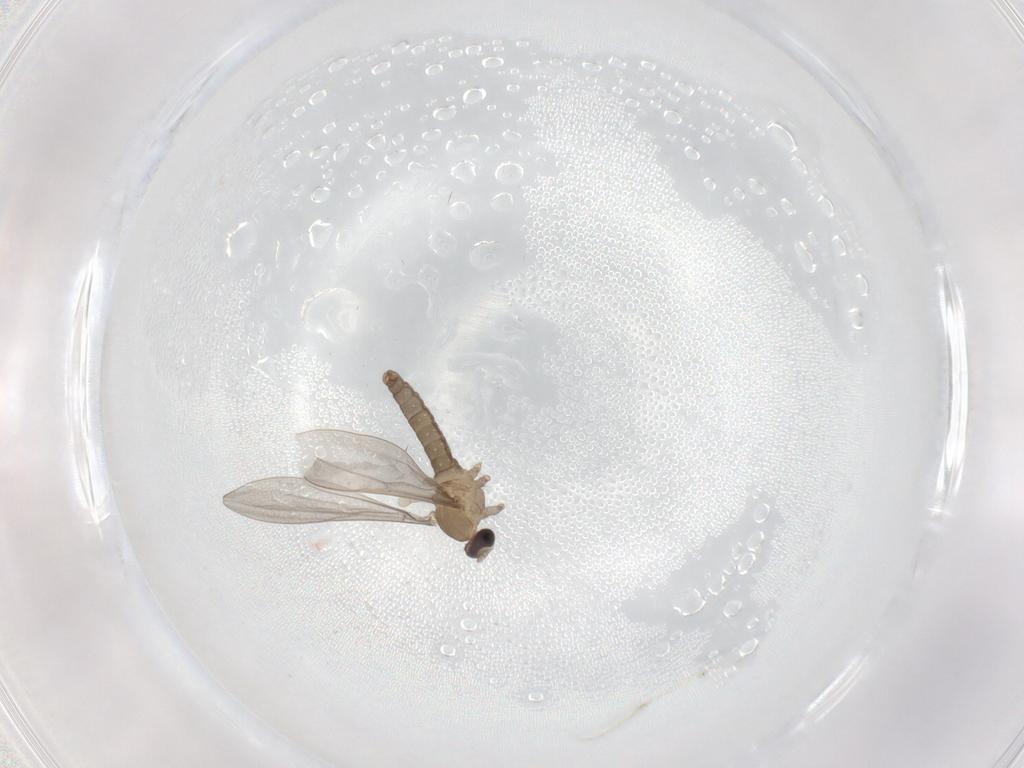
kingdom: Animalia
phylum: Arthropoda
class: Insecta
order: Diptera
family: Cecidomyiidae
